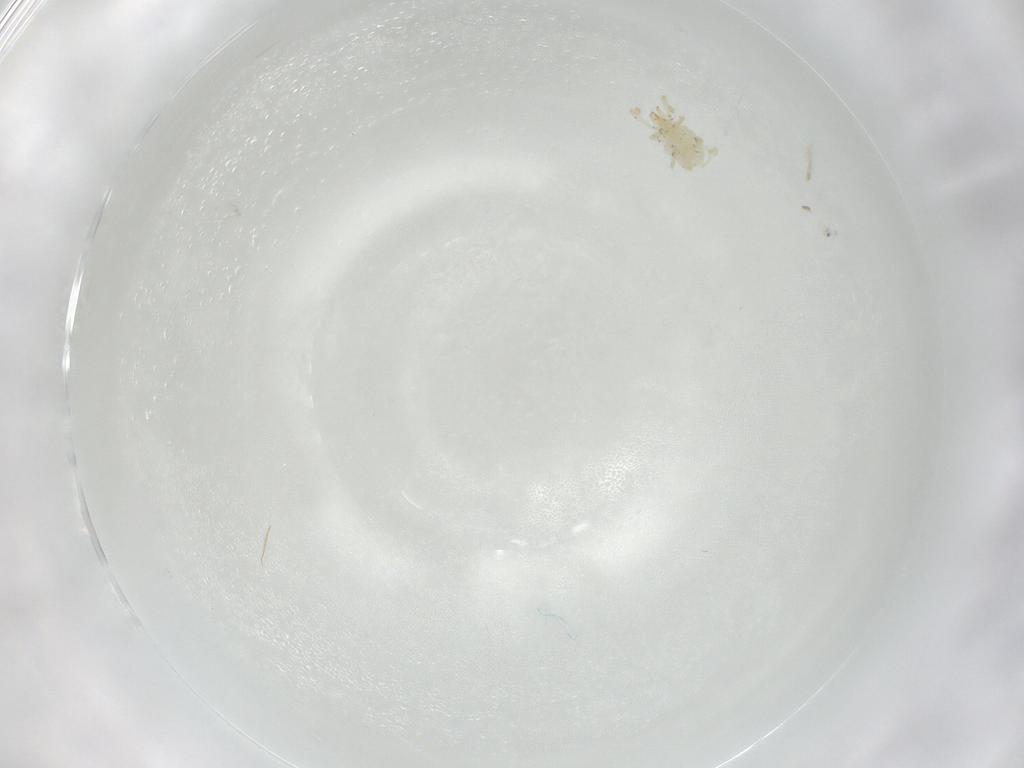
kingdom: Animalia
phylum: Arthropoda
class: Arachnida
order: Trombidiformes
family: Tarsonemidae
